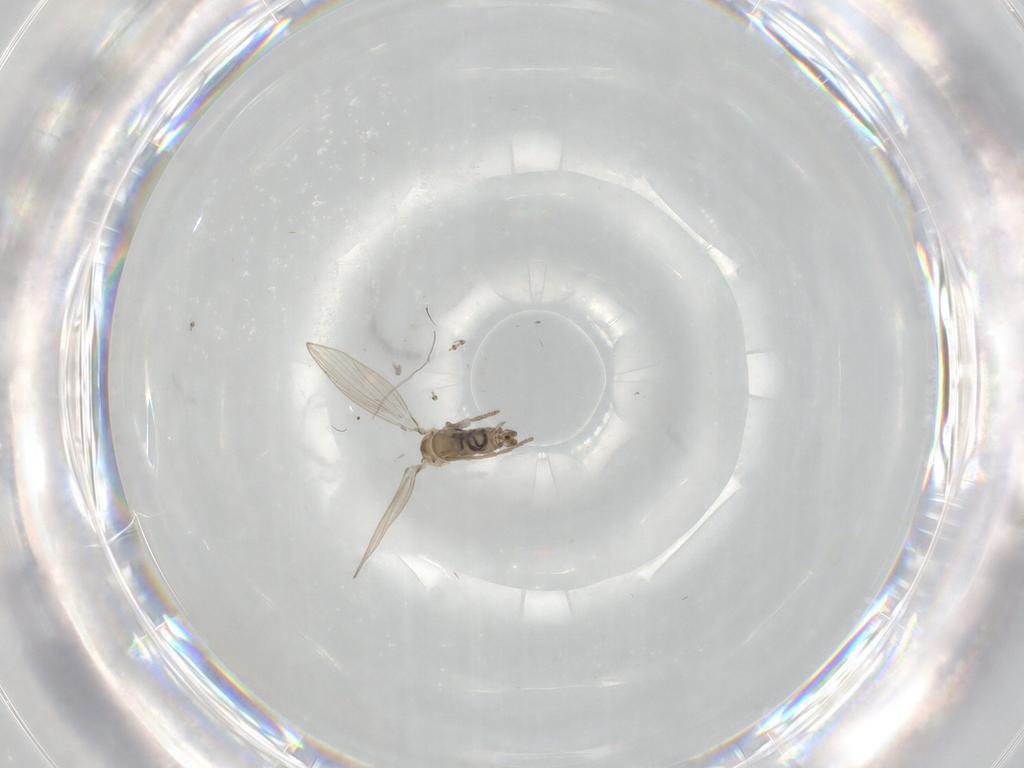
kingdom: Animalia
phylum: Arthropoda
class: Insecta
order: Diptera
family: Psychodidae
